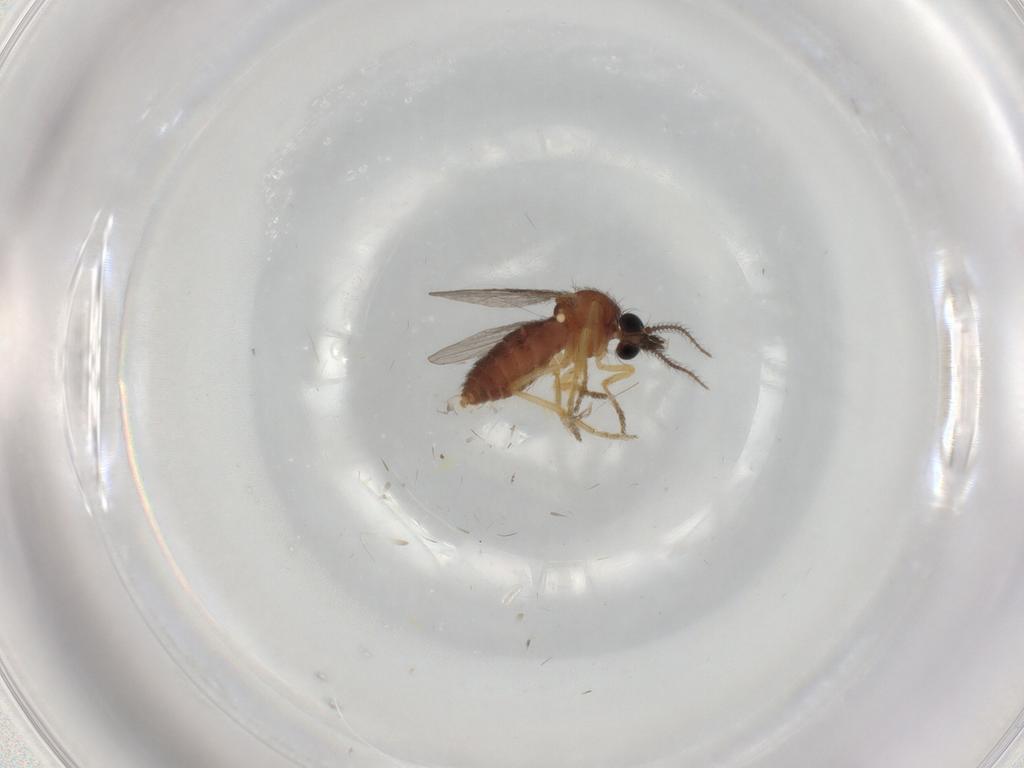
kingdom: Animalia
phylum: Arthropoda
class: Insecta
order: Diptera
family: Ceratopogonidae
